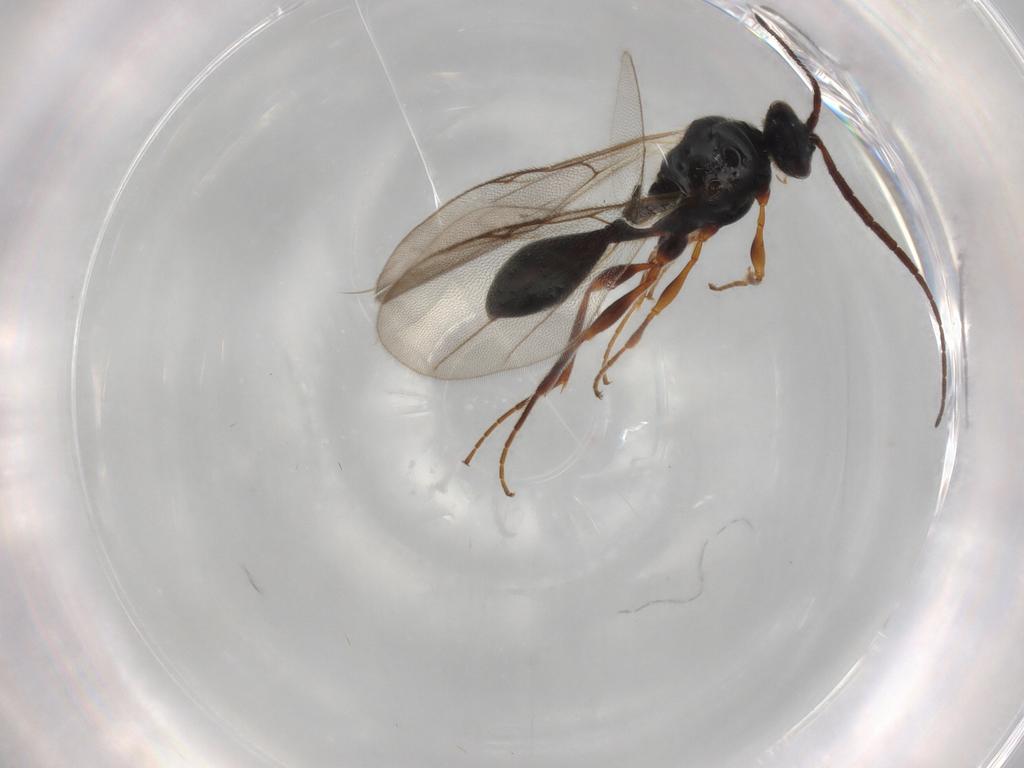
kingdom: Animalia
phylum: Arthropoda
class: Insecta
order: Hymenoptera
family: Diapriidae
